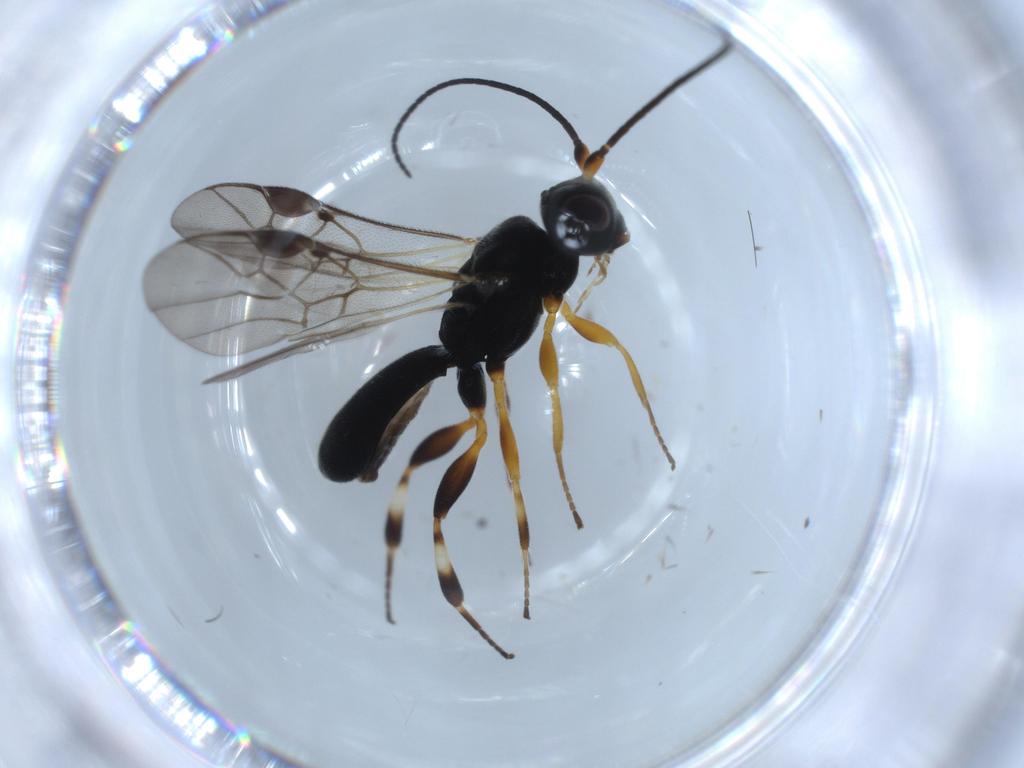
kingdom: Animalia
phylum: Arthropoda
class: Insecta
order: Hymenoptera
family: Braconidae
